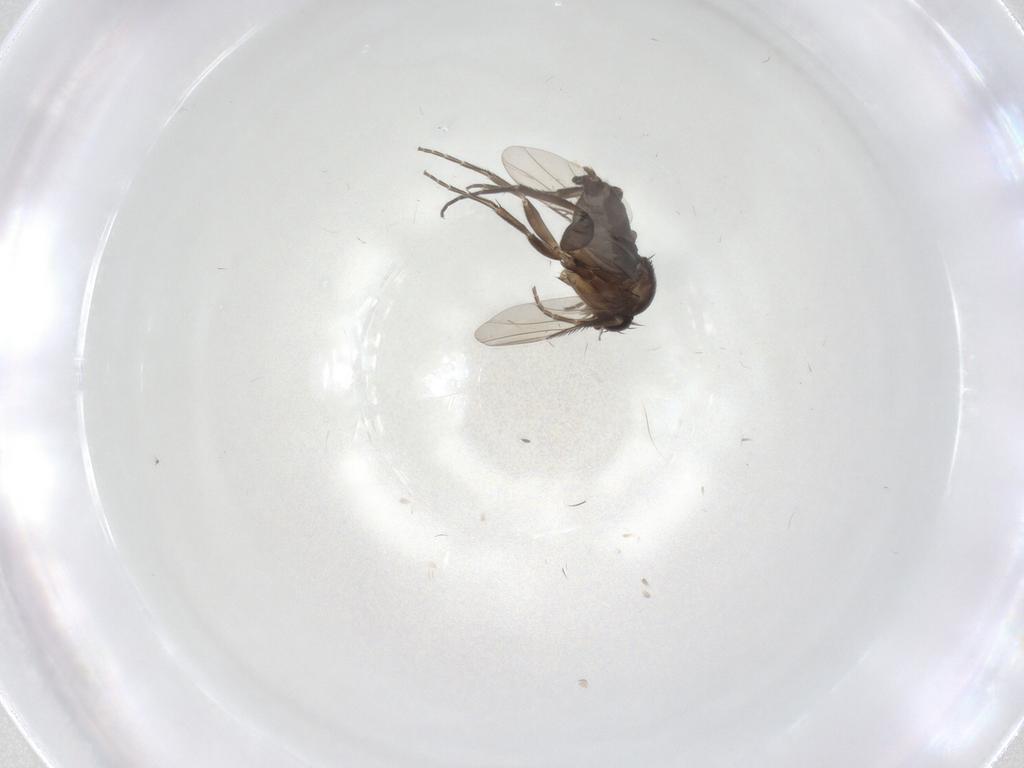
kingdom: Animalia
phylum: Arthropoda
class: Insecta
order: Diptera
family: Phoridae
